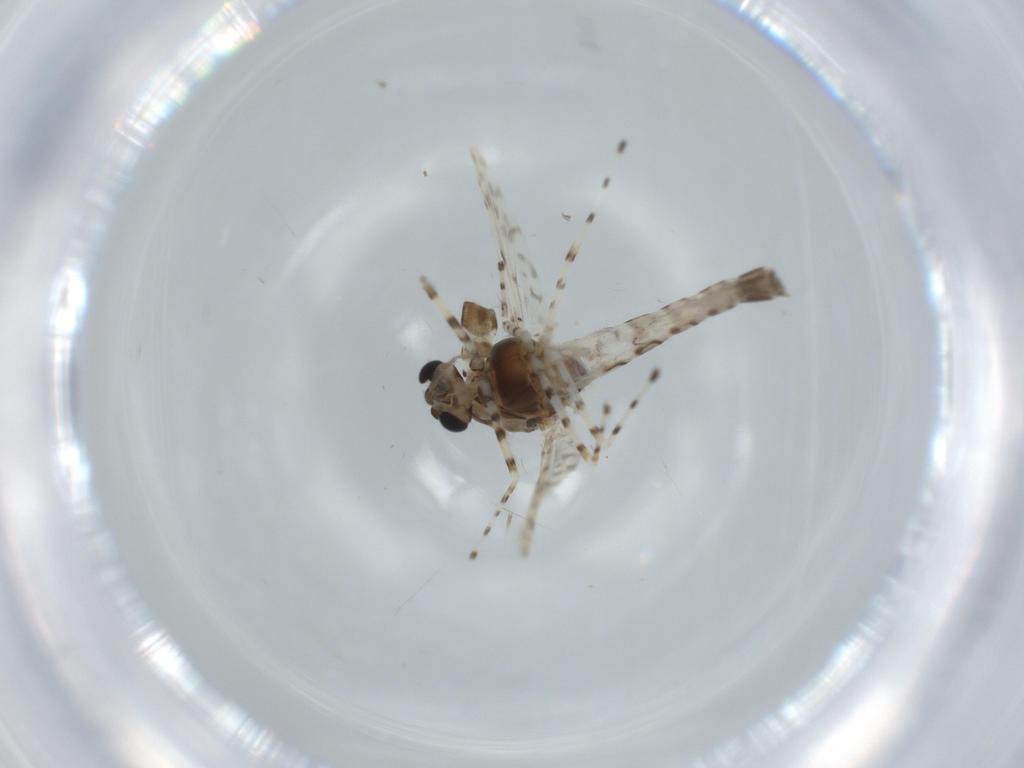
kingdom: Animalia
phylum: Arthropoda
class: Insecta
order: Diptera
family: Chironomidae
